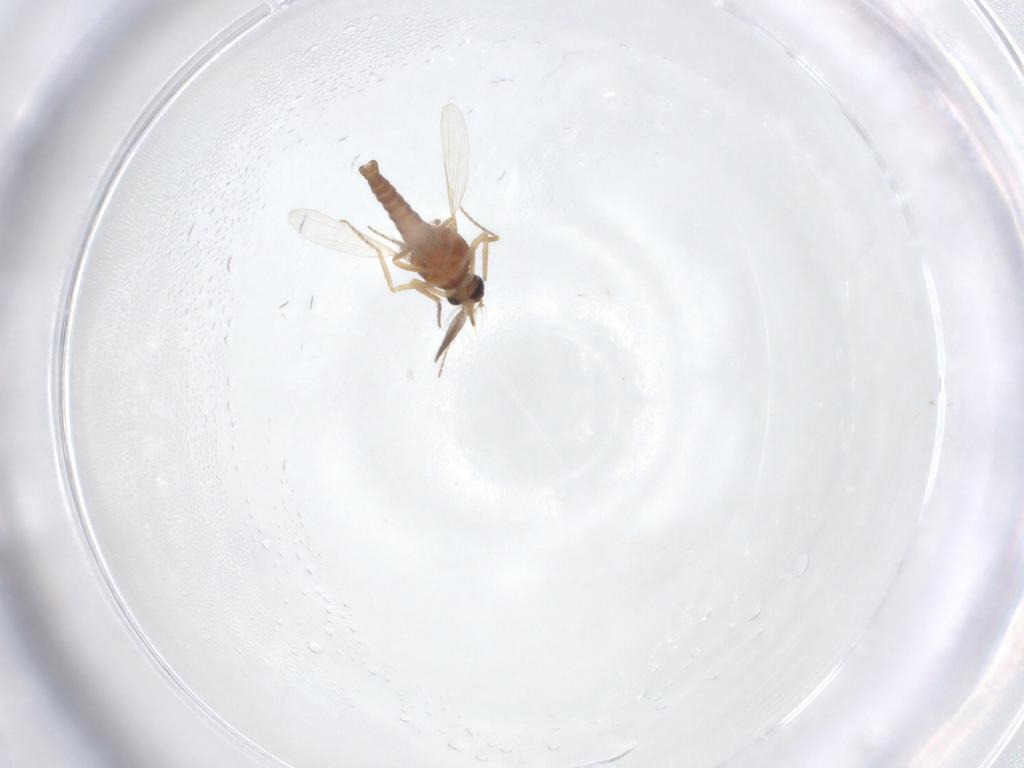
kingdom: Animalia
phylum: Arthropoda
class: Insecta
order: Diptera
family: Ceratopogonidae
